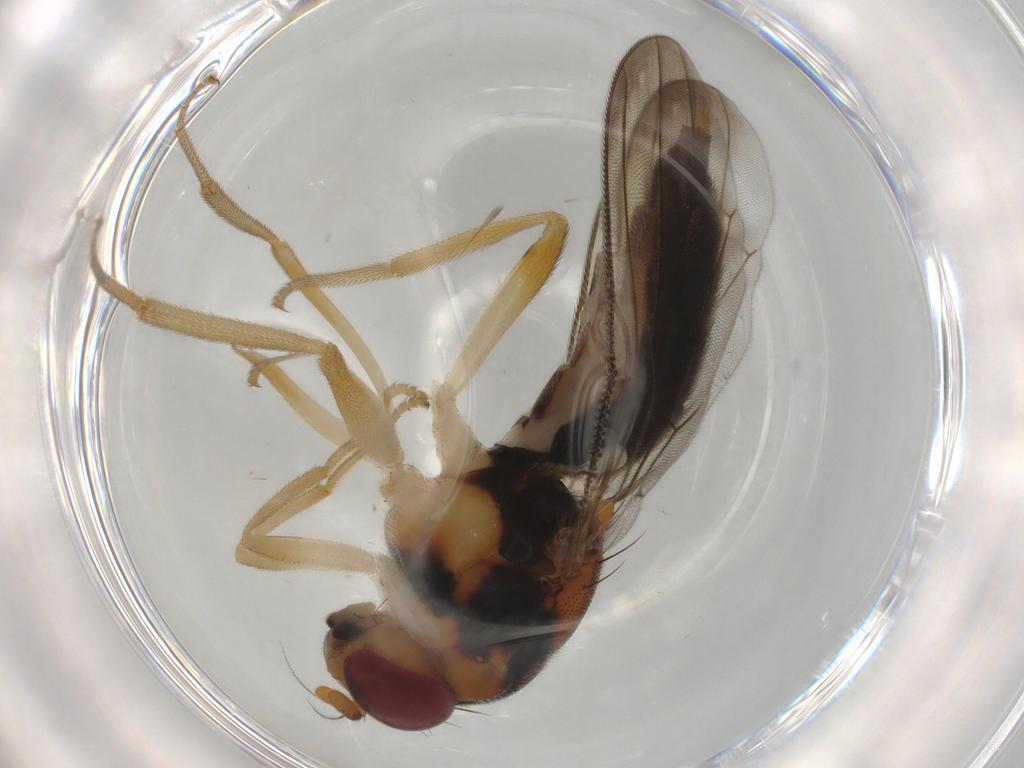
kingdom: Animalia
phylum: Arthropoda
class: Insecta
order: Diptera
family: Psilidae
